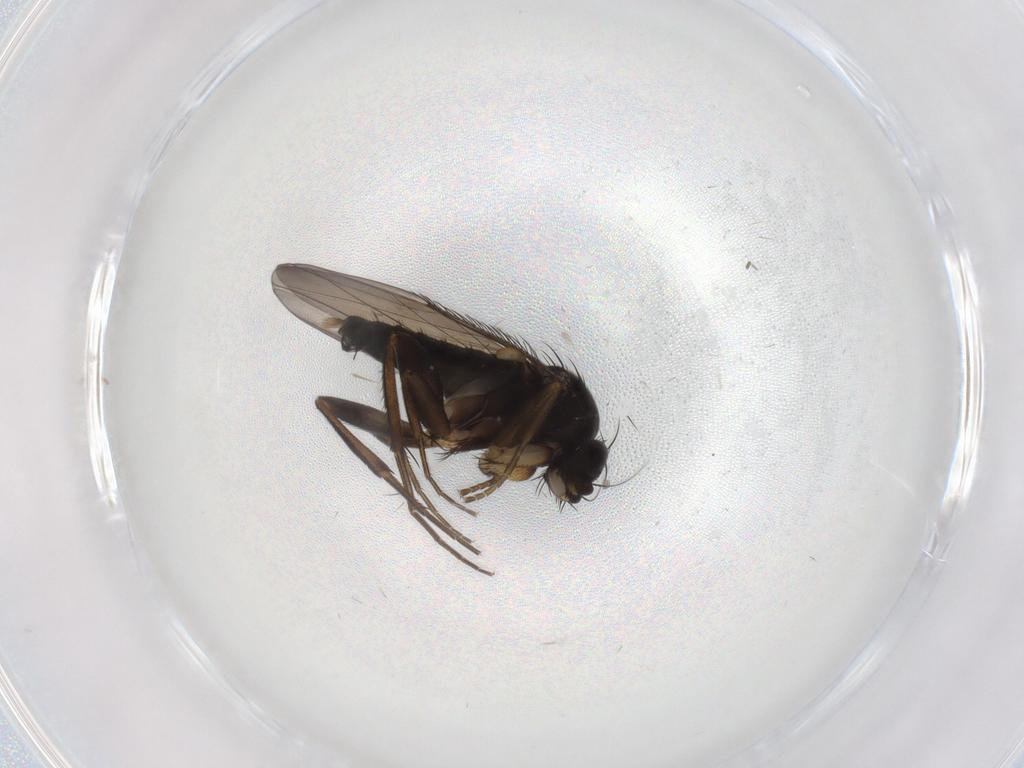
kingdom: Animalia
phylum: Arthropoda
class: Insecta
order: Diptera
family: Phoridae
